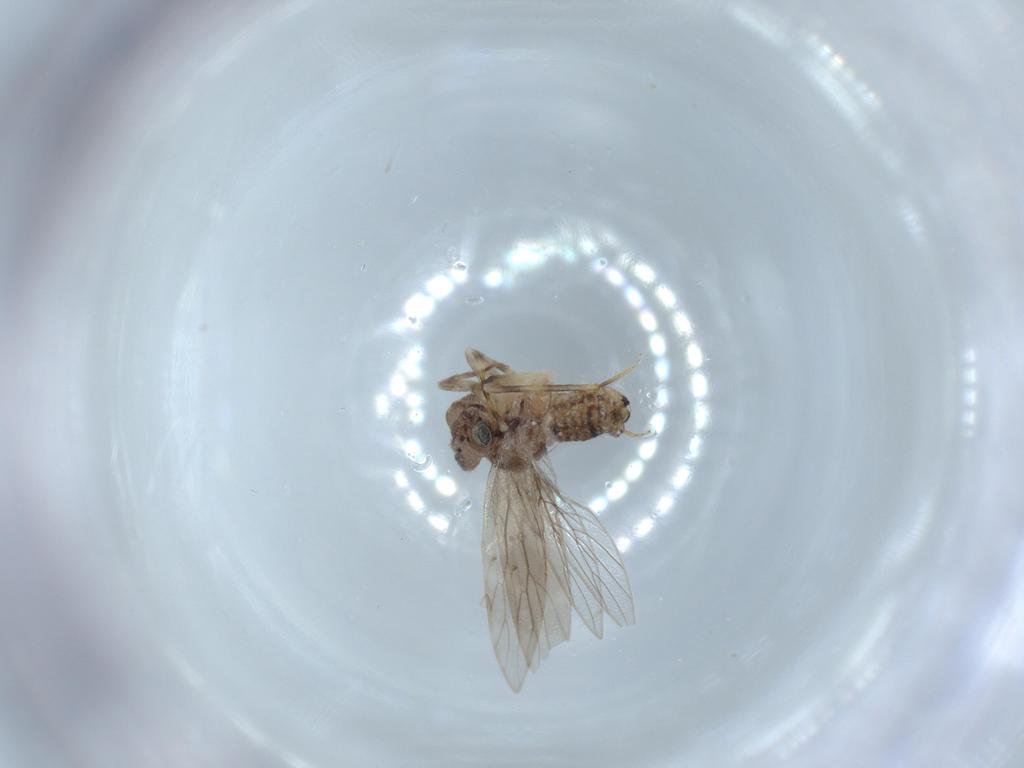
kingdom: Animalia
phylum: Arthropoda
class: Insecta
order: Psocodea
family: Lepidopsocidae
